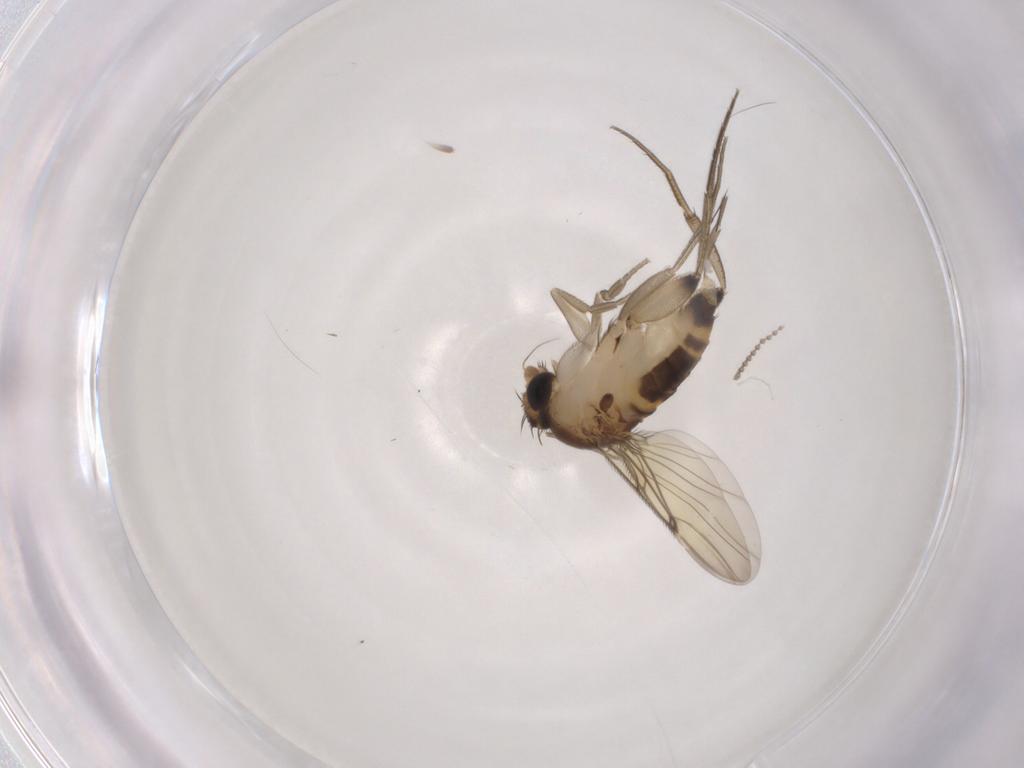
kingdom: Animalia
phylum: Arthropoda
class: Insecta
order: Diptera
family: Phoridae
